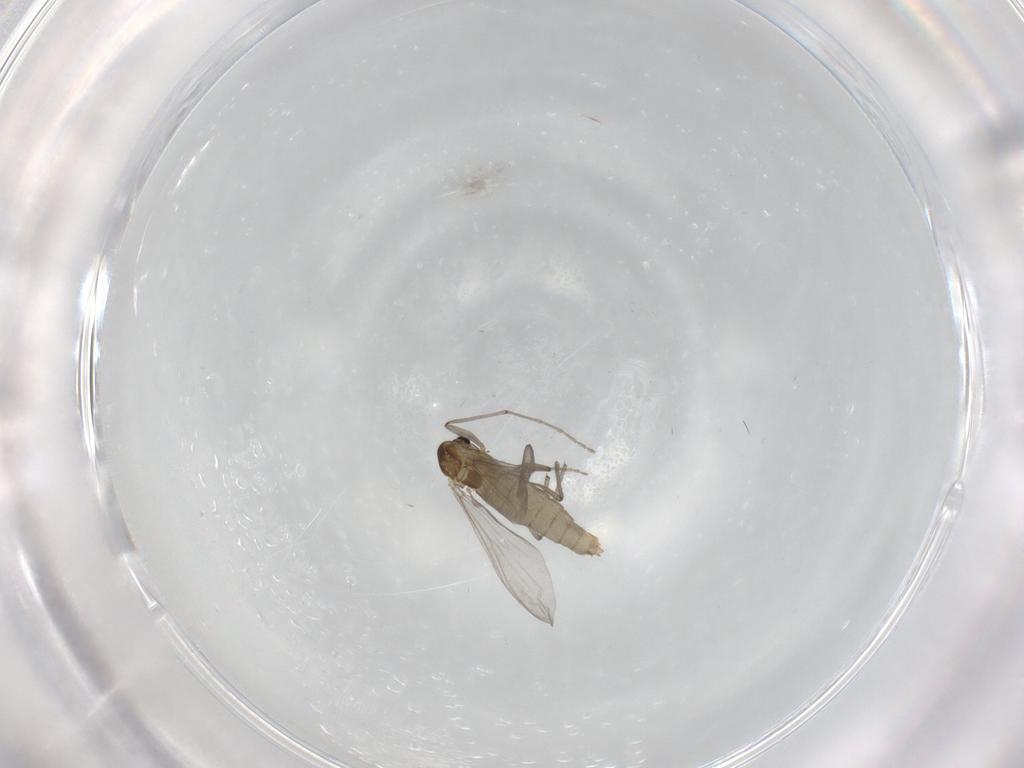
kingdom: Animalia
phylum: Arthropoda
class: Insecta
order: Diptera
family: Chironomidae
